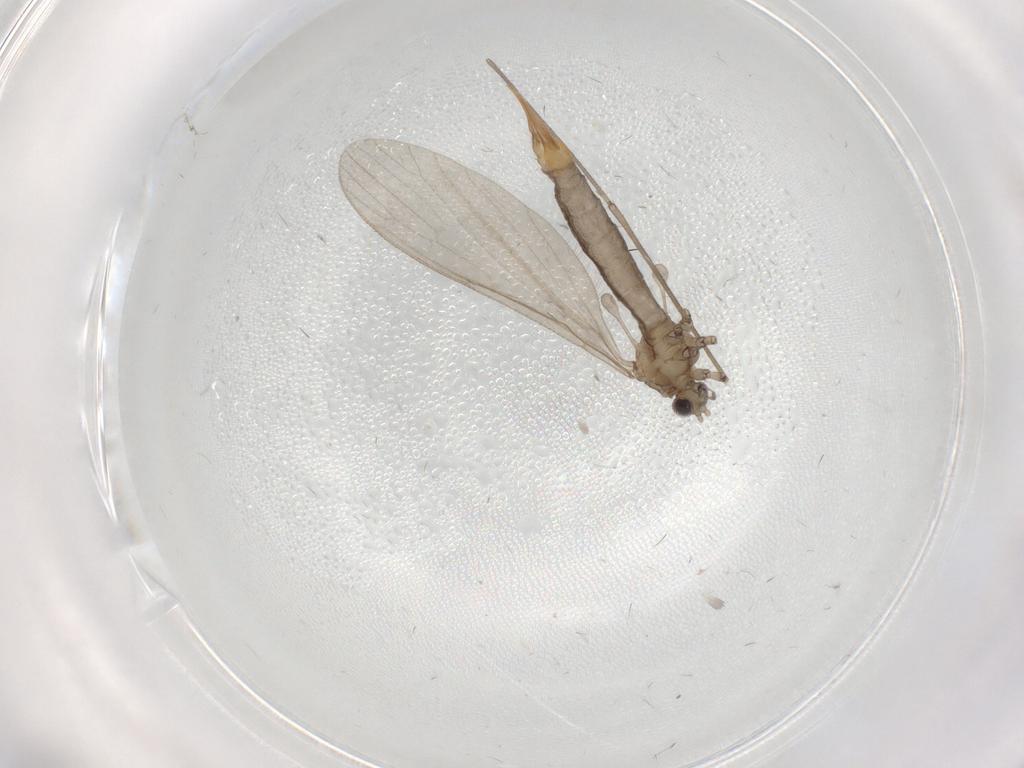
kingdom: Animalia
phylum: Arthropoda
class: Insecta
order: Diptera
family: Limoniidae
